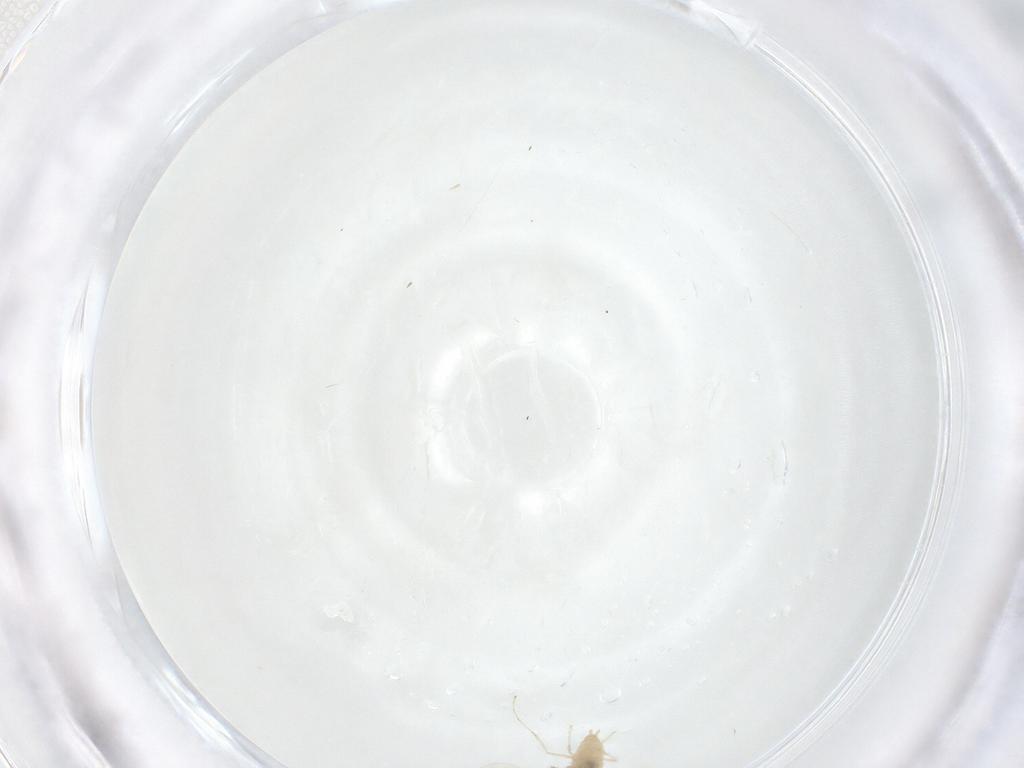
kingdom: Animalia
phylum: Arthropoda
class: Insecta
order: Diptera
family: Cecidomyiidae
